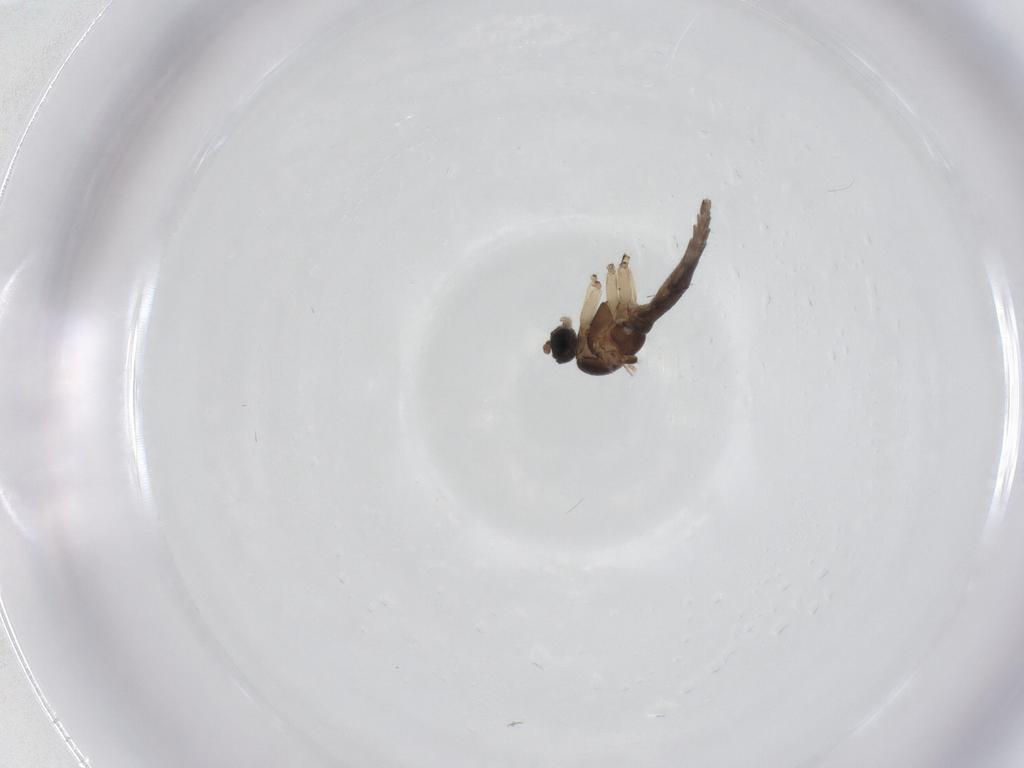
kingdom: Animalia
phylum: Arthropoda
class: Insecta
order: Diptera
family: Sciaridae
